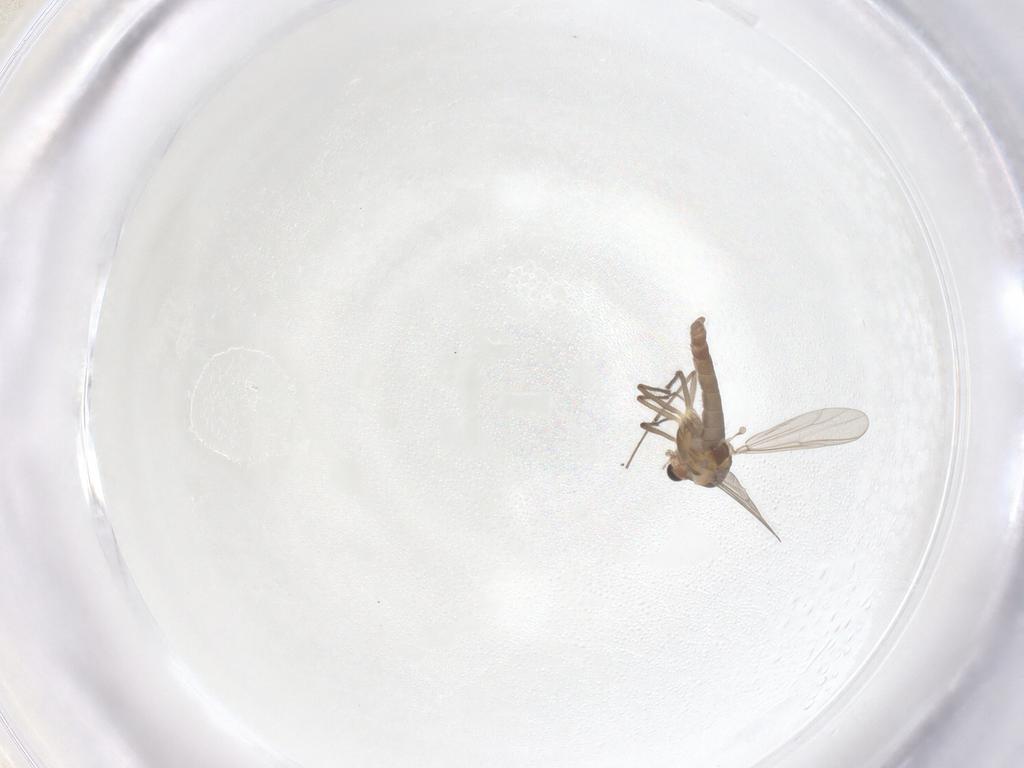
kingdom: Animalia
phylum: Arthropoda
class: Insecta
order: Diptera
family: Chironomidae
